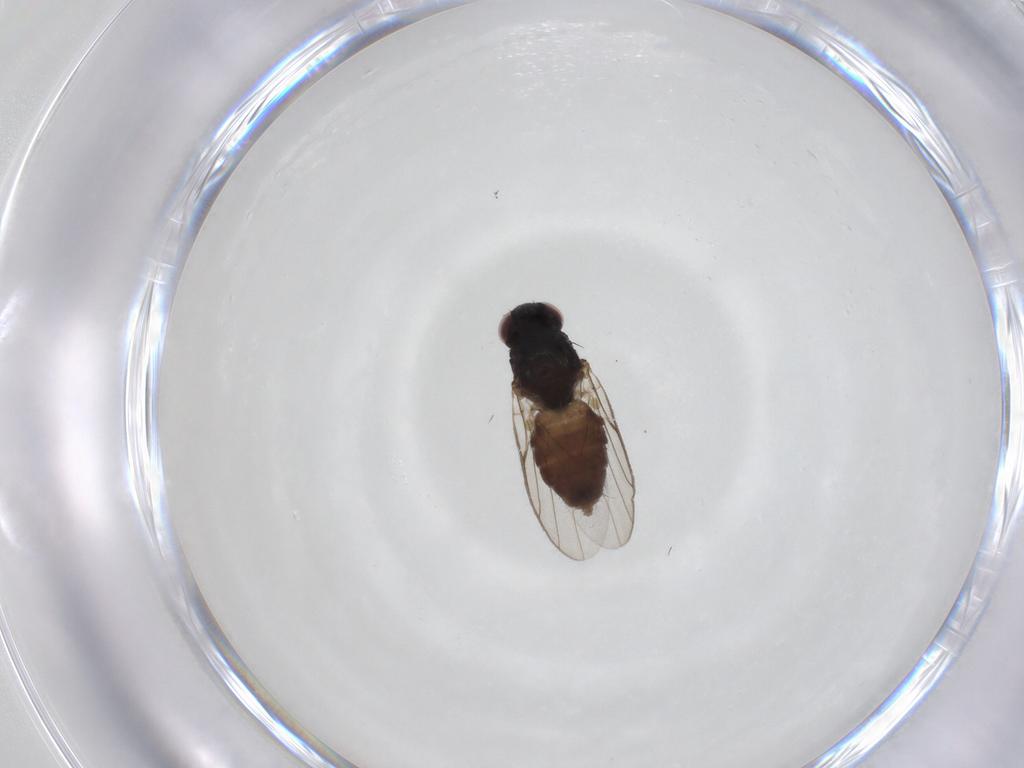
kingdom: Animalia
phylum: Arthropoda
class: Insecta
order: Diptera
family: Chloropidae
